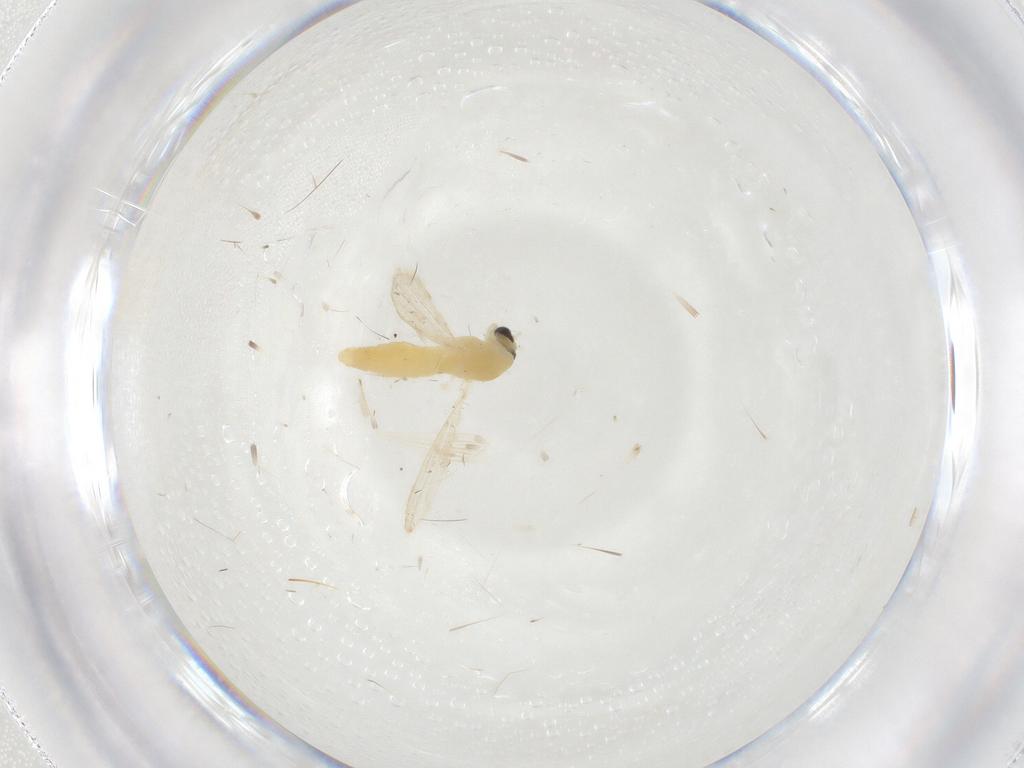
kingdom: Animalia
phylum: Arthropoda
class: Insecta
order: Diptera
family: Chironomidae
